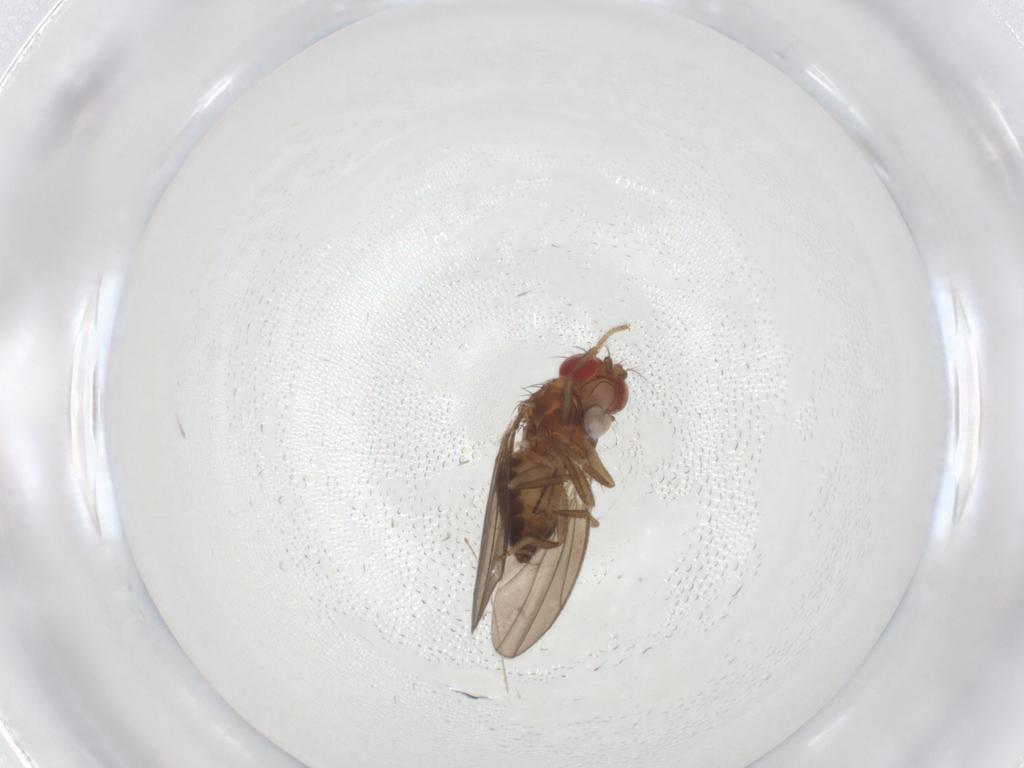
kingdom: Animalia
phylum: Arthropoda
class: Insecta
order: Diptera
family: Drosophilidae
